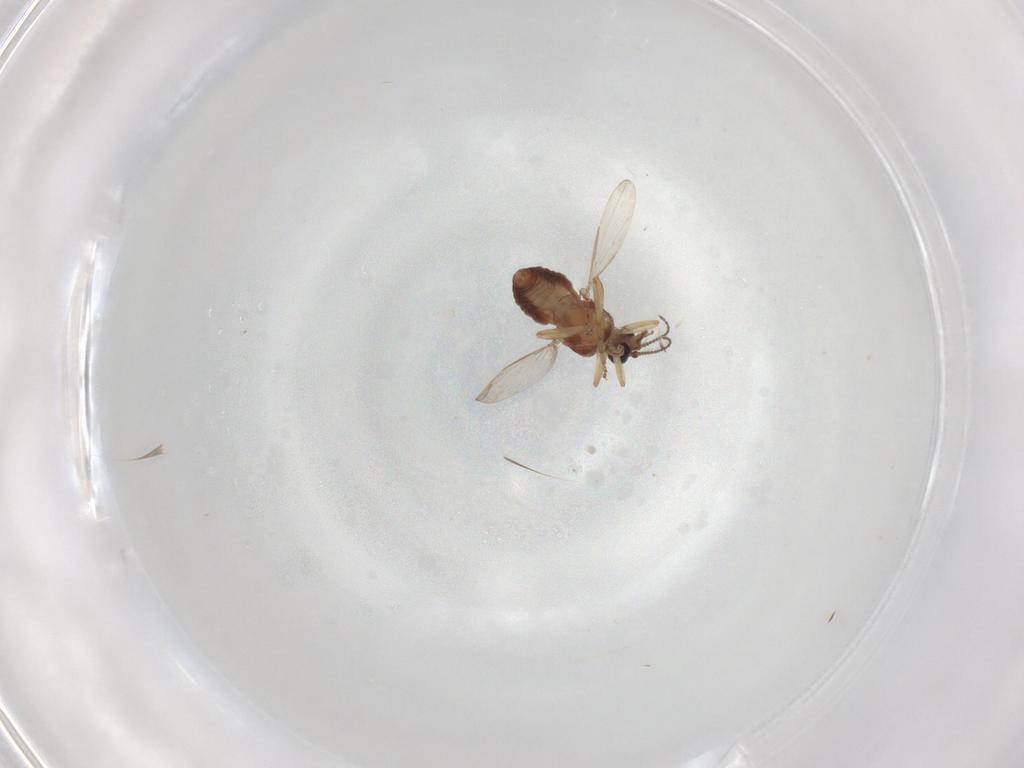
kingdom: Animalia
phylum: Arthropoda
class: Insecta
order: Diptera
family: Ceratopogonidae
